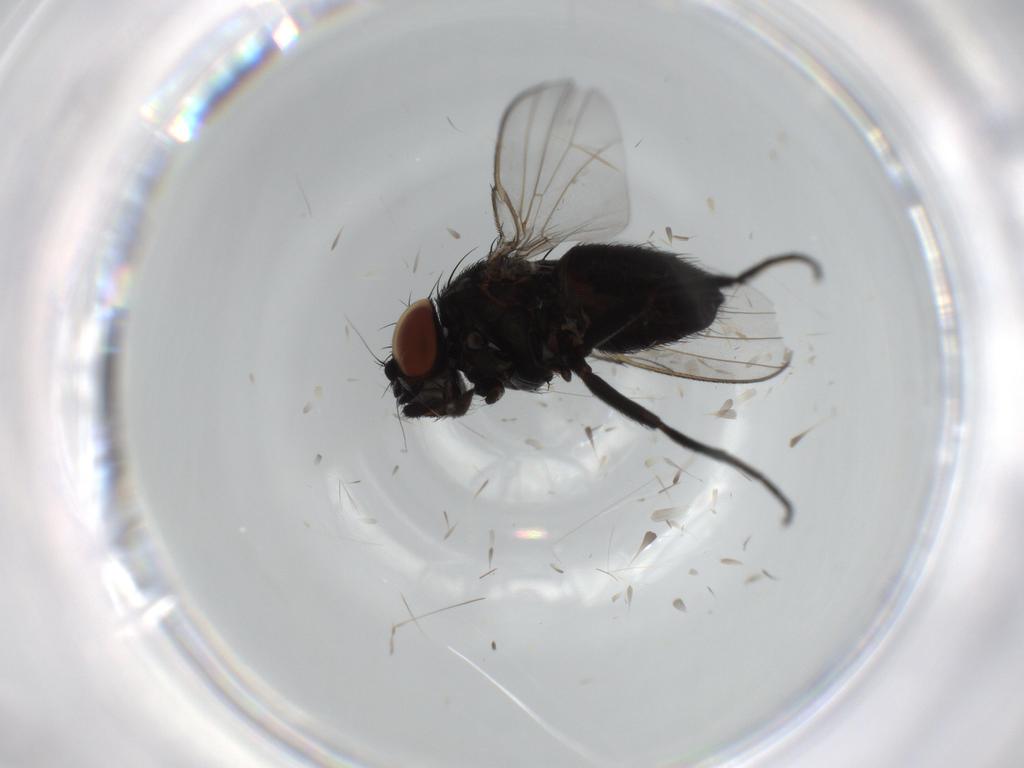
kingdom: Animalia
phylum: Arthropoda
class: Insecta
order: Diptera
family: Milichiidae
